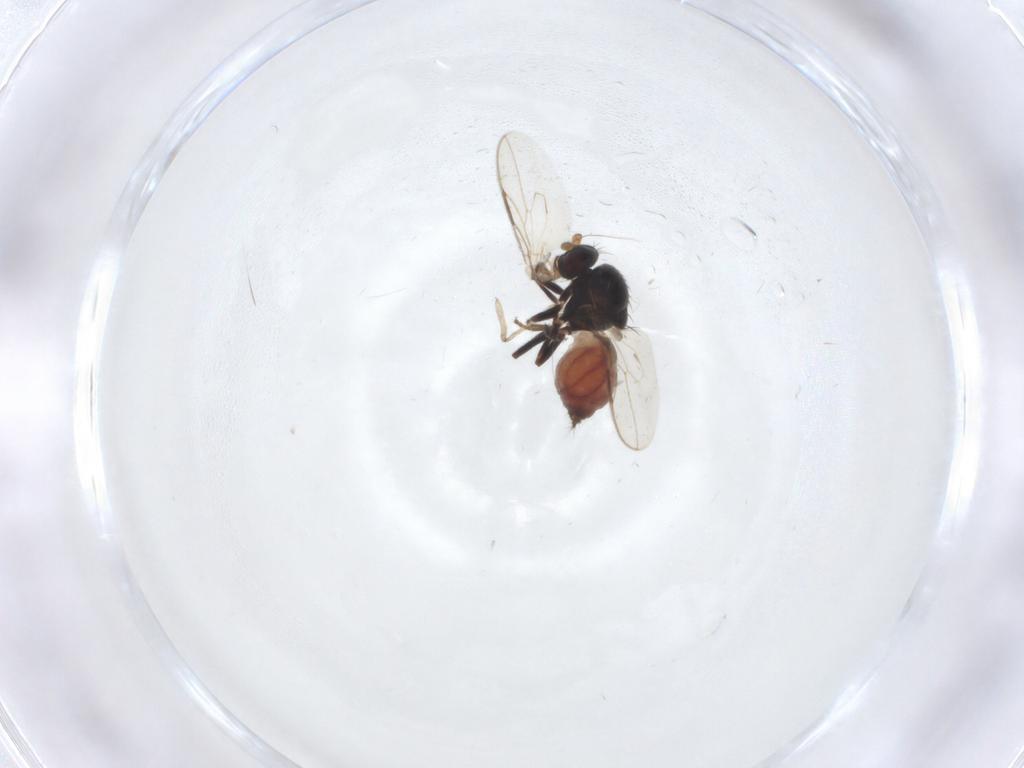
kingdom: Animalia
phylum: Arthropoda
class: Insecta
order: Diptera
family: Psychodidae
